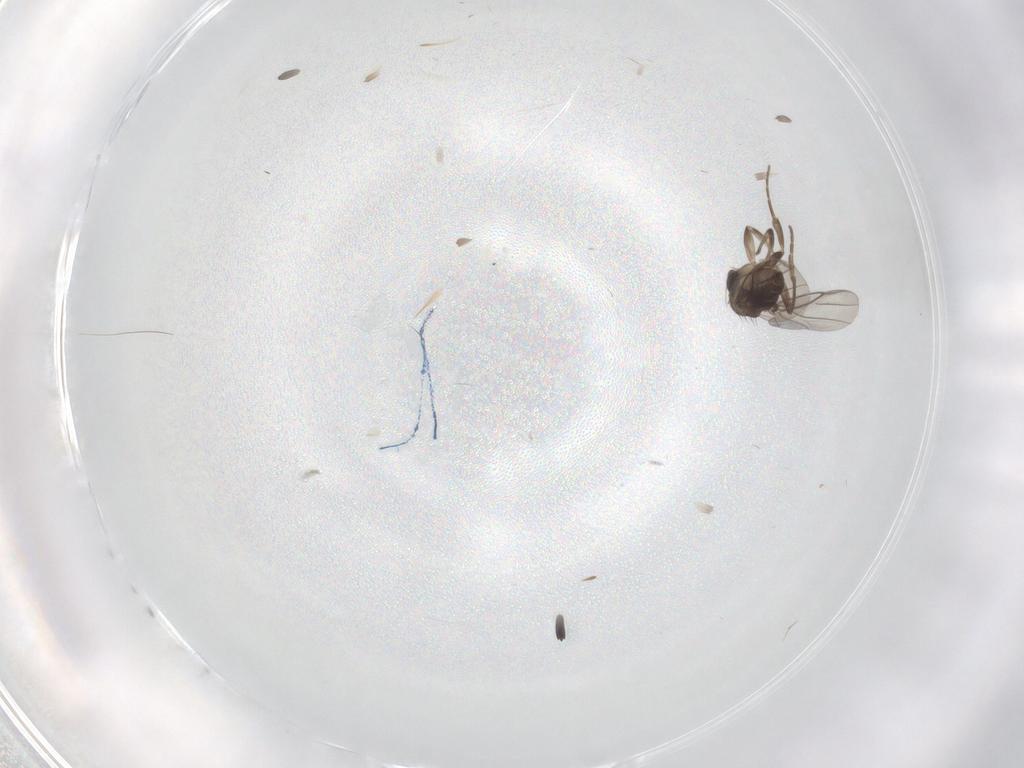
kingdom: Animalia
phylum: Arthropoda
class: Insecta
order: Diptera
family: Phoridae
